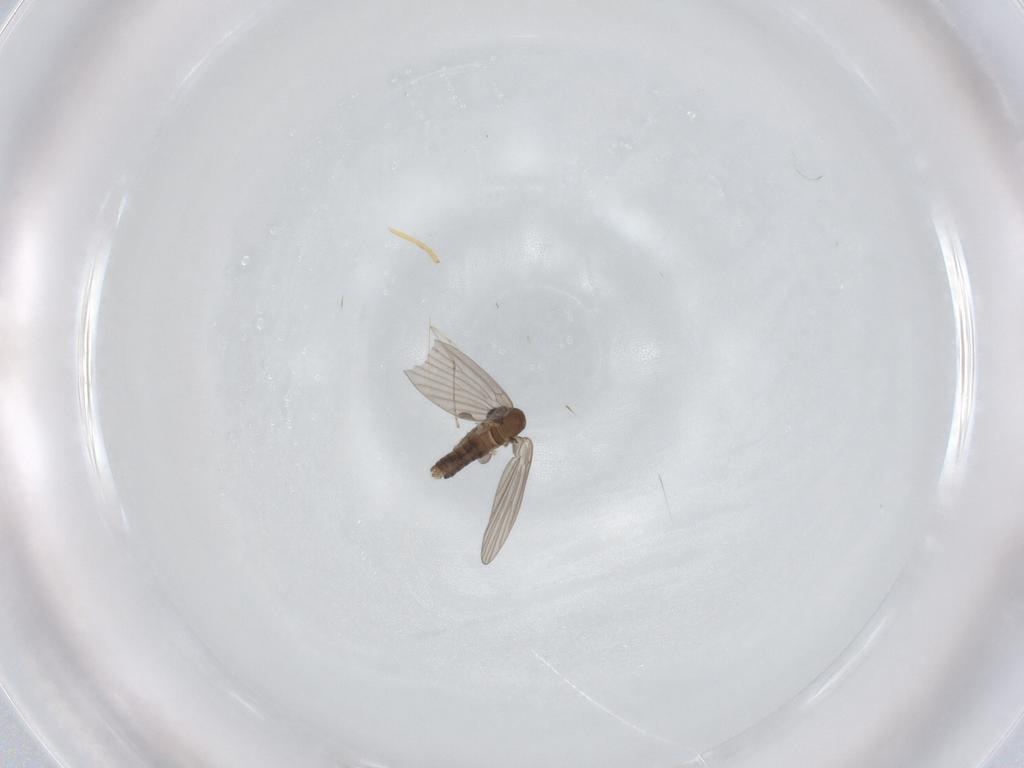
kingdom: Animalia
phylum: Arthropoda
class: Insecta
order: Diptera
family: Cecidomyiidae
